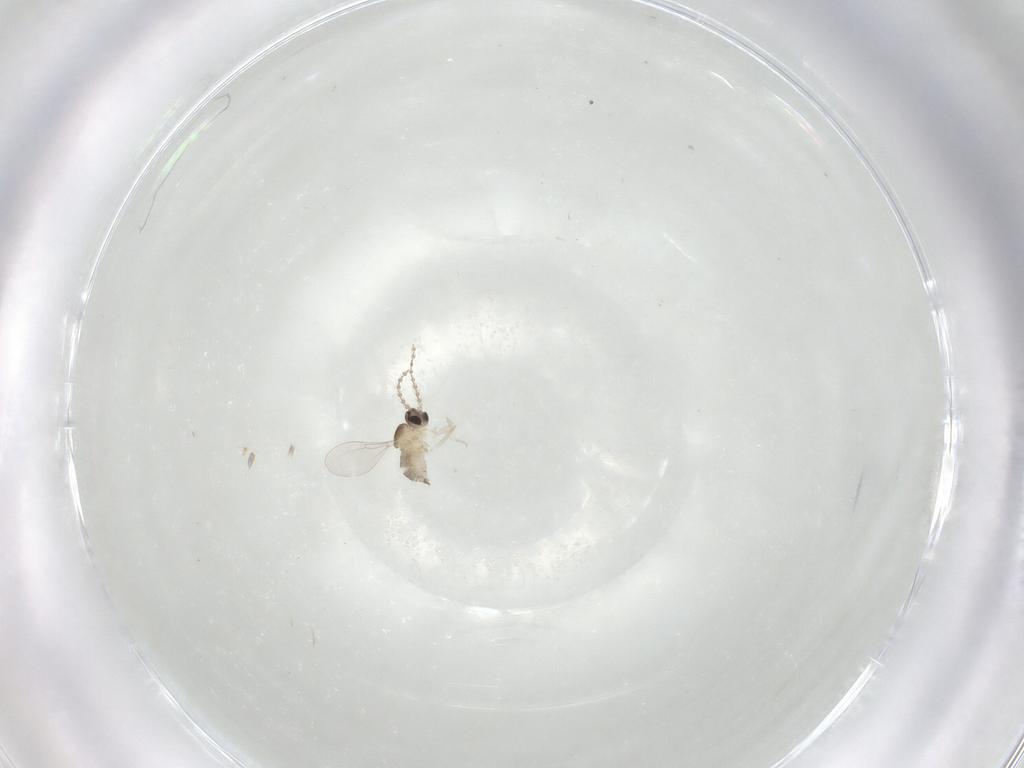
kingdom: Animalia
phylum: Arthropoda
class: Insecta
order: Diptera
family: Cecidomyiidae
